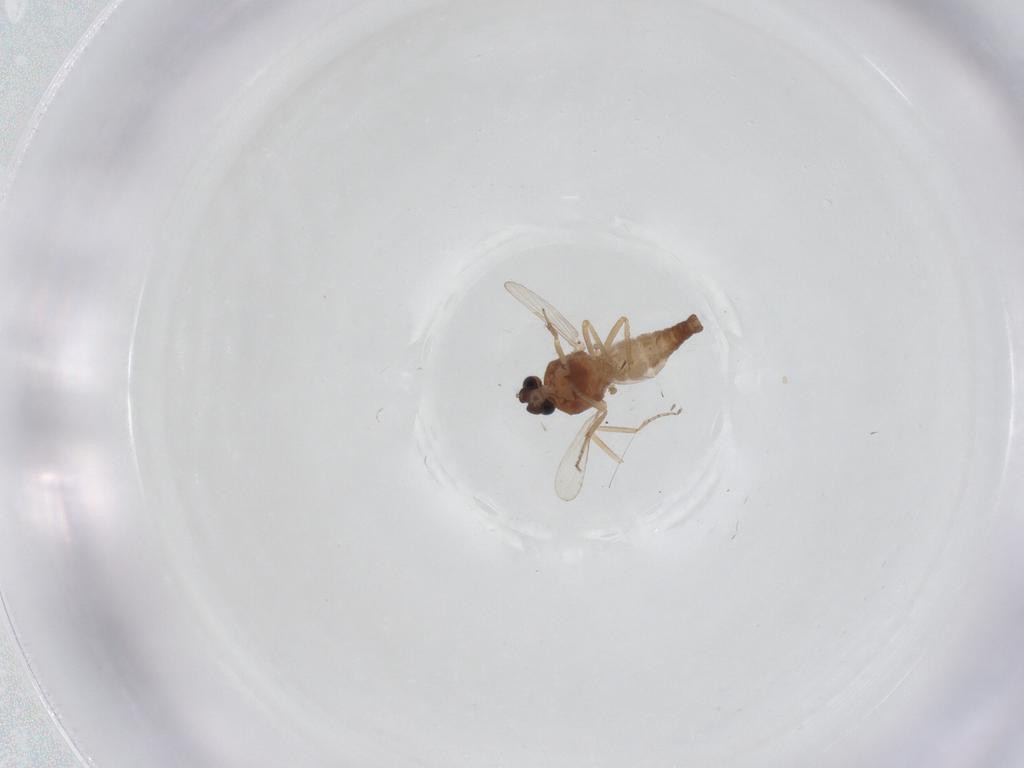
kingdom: Animalia
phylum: Arthropoda
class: Insecta
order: Diptera
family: Ceratopogonidae
